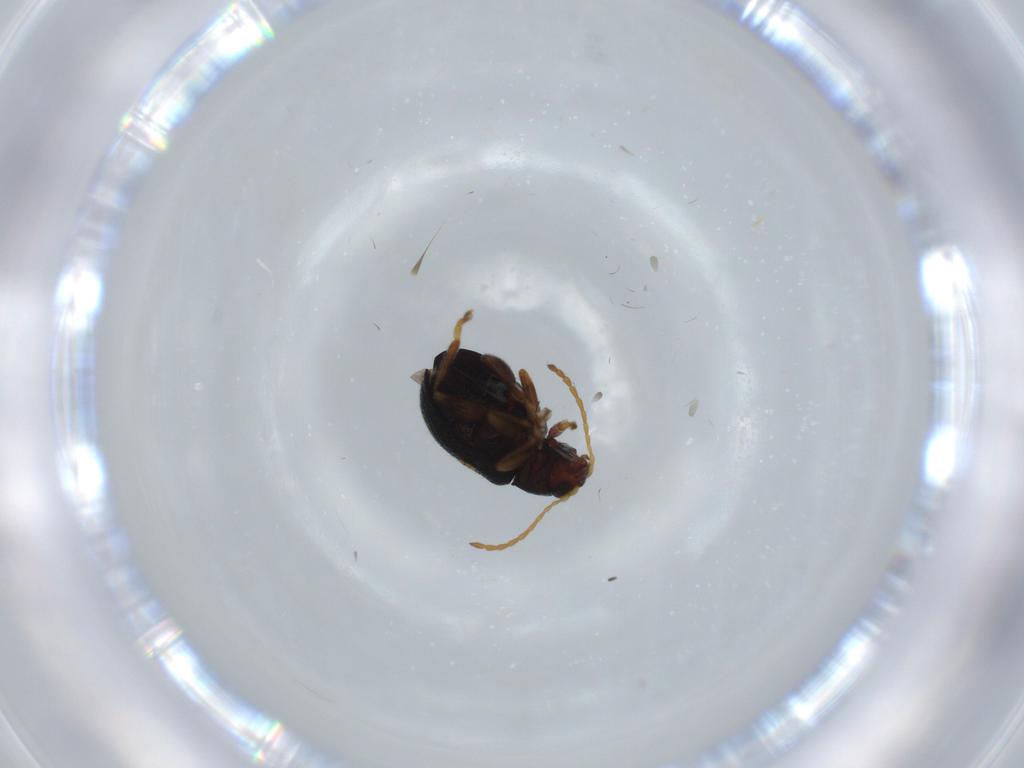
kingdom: Animalia
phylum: Arthropoda
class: Insecta
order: Coleoptera
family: Chrysomelidae
